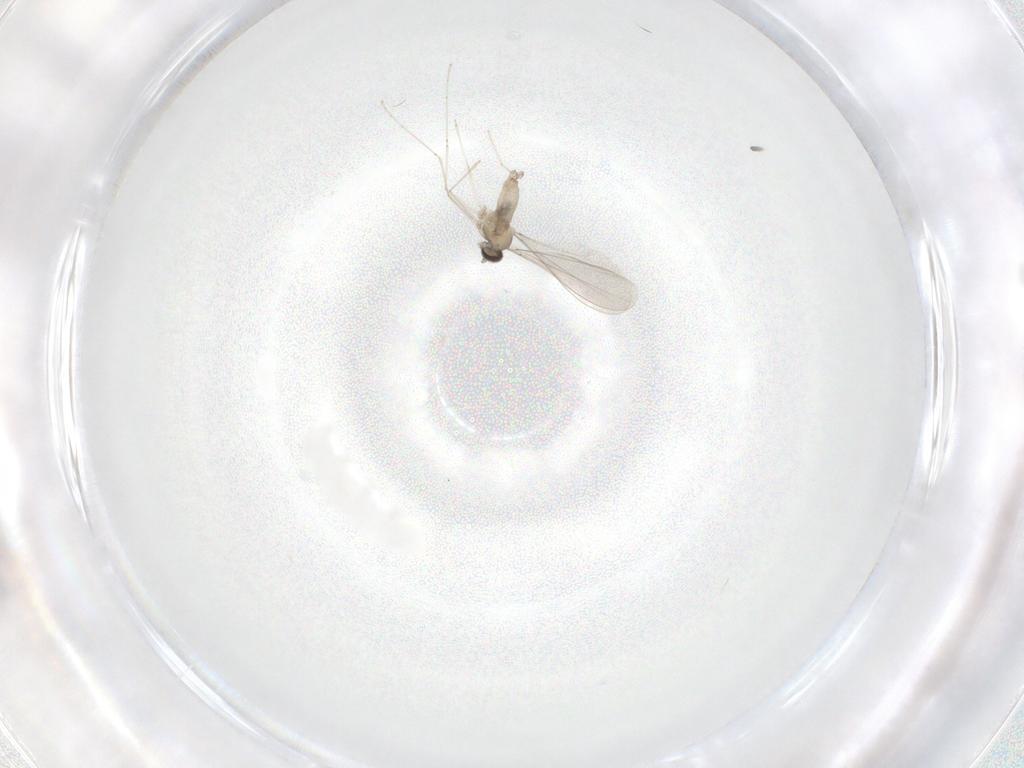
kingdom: Animalia
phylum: Arthropoda
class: Insecta
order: Diptera
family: Cecidomyiidae
